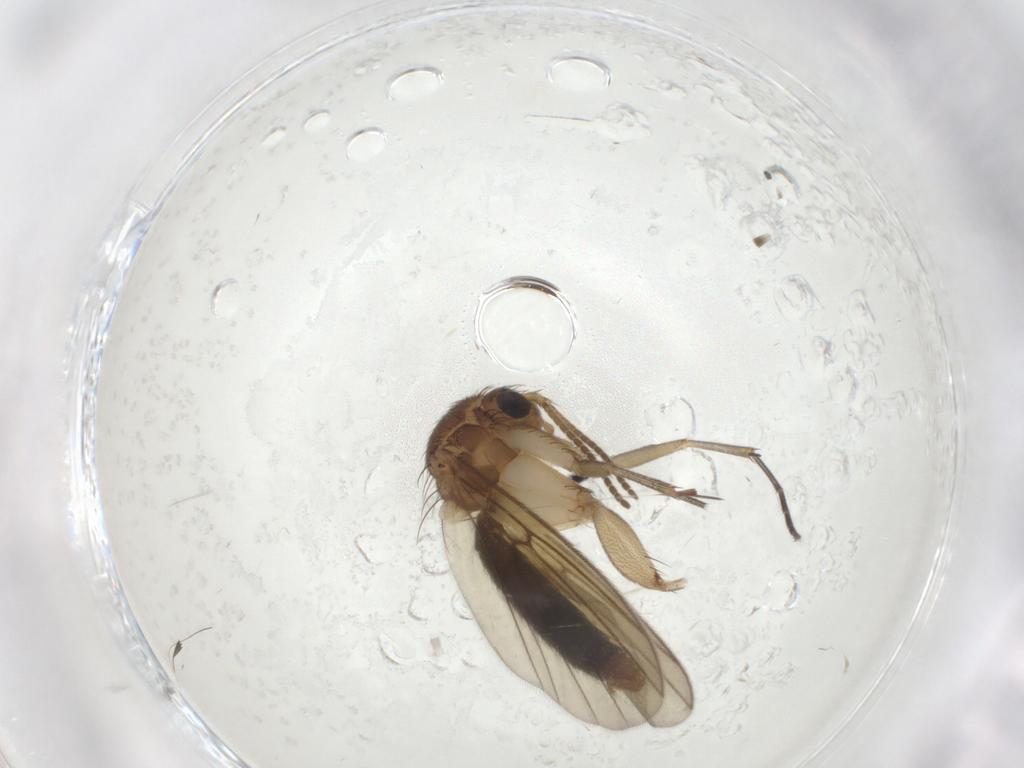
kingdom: Animalia
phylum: Arthropoda
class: Insecta
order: Diptera
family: Mycetophilidae
